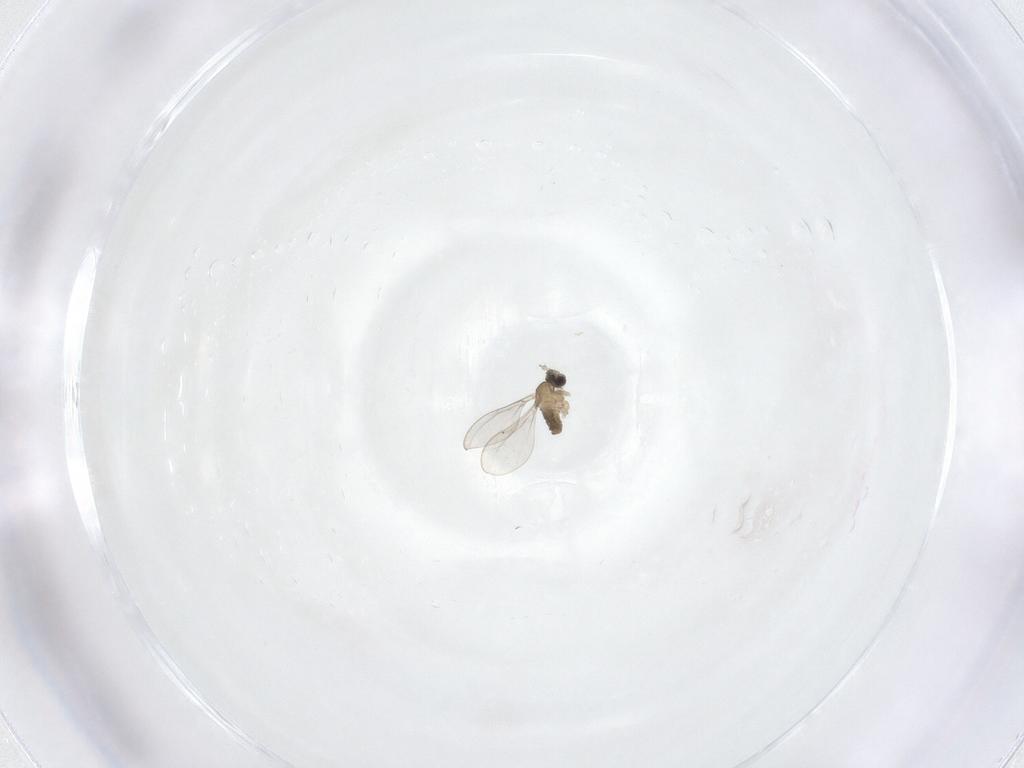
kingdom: Animalia
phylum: Arthropoda
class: Insecta
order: Diptera
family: Cecidomyiidae
